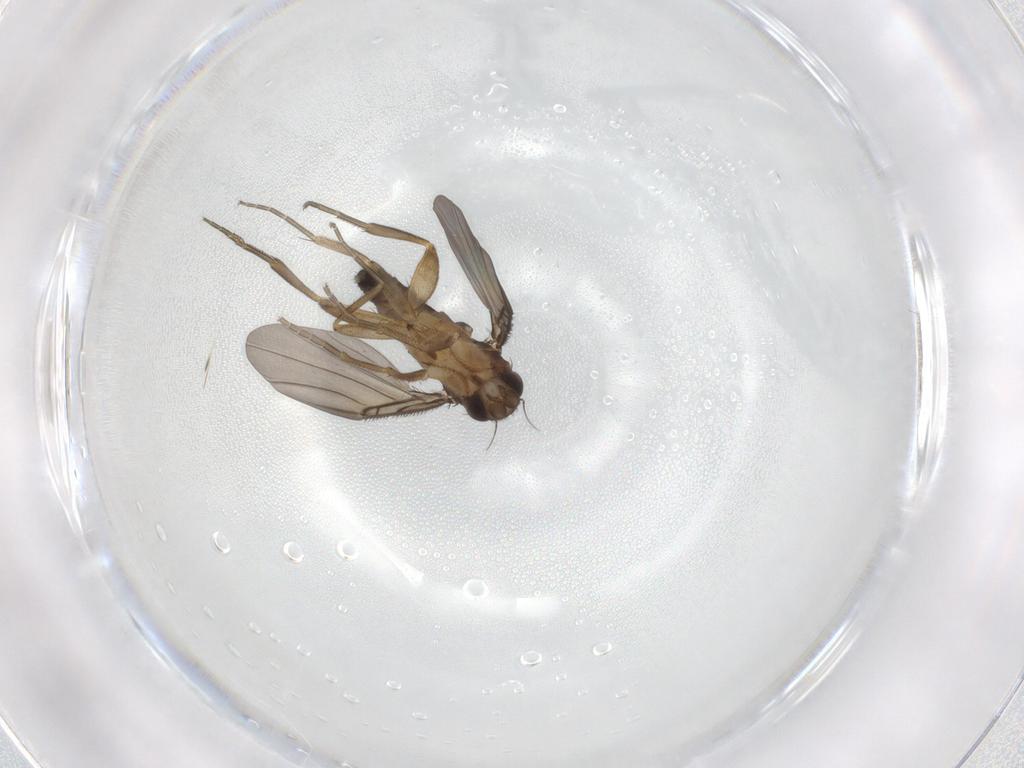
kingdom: Animalia
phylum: Arthropoda
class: Insecta
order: Diptera
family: Phoridae
